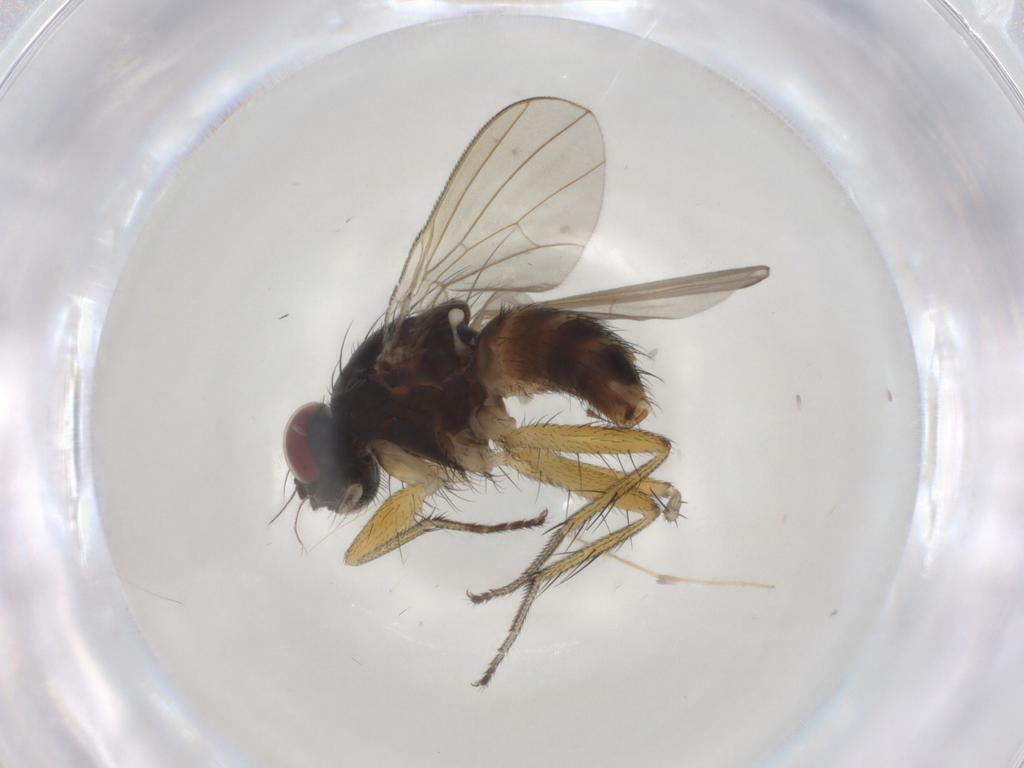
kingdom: Animalia
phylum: Arthropoda
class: Insecta
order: Diptera
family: Muscidae
